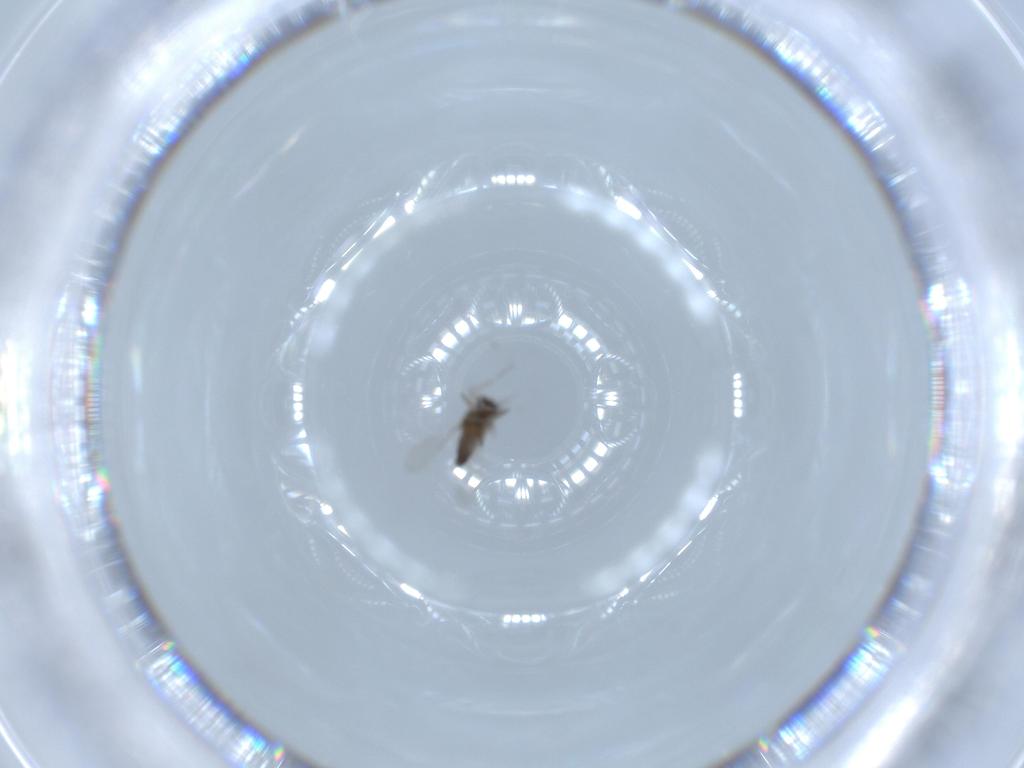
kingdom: Animalia
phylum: Arthropoda
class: Insecta
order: Diptera
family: Ceratopogonidae
